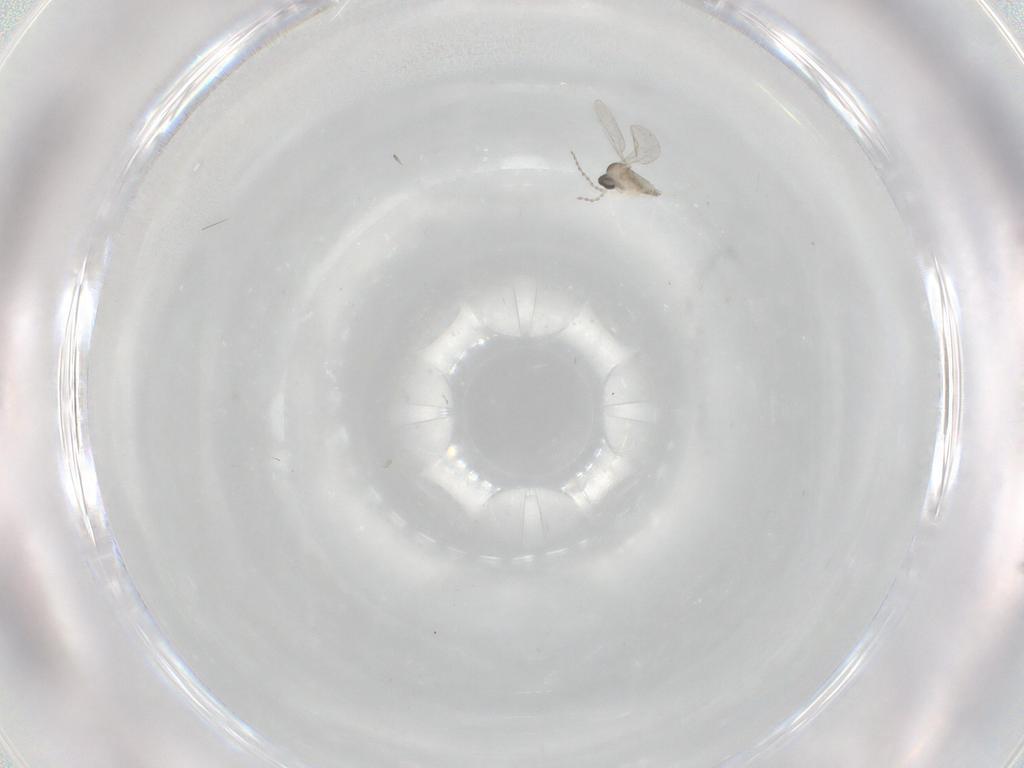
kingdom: Animalia
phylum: Arthropoda
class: Insecta
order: Diptera
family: Cecidomyiidae
